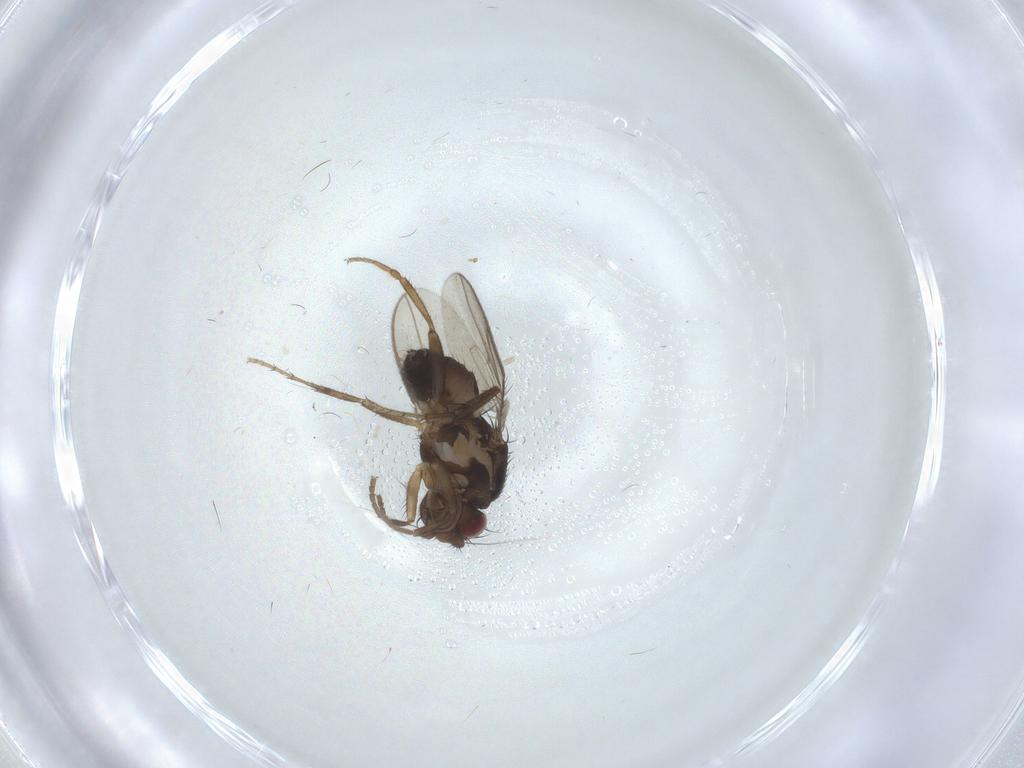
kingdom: Animalia
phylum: Arthropoda
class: Insecta
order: Diptera
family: Sphaeroceridae
